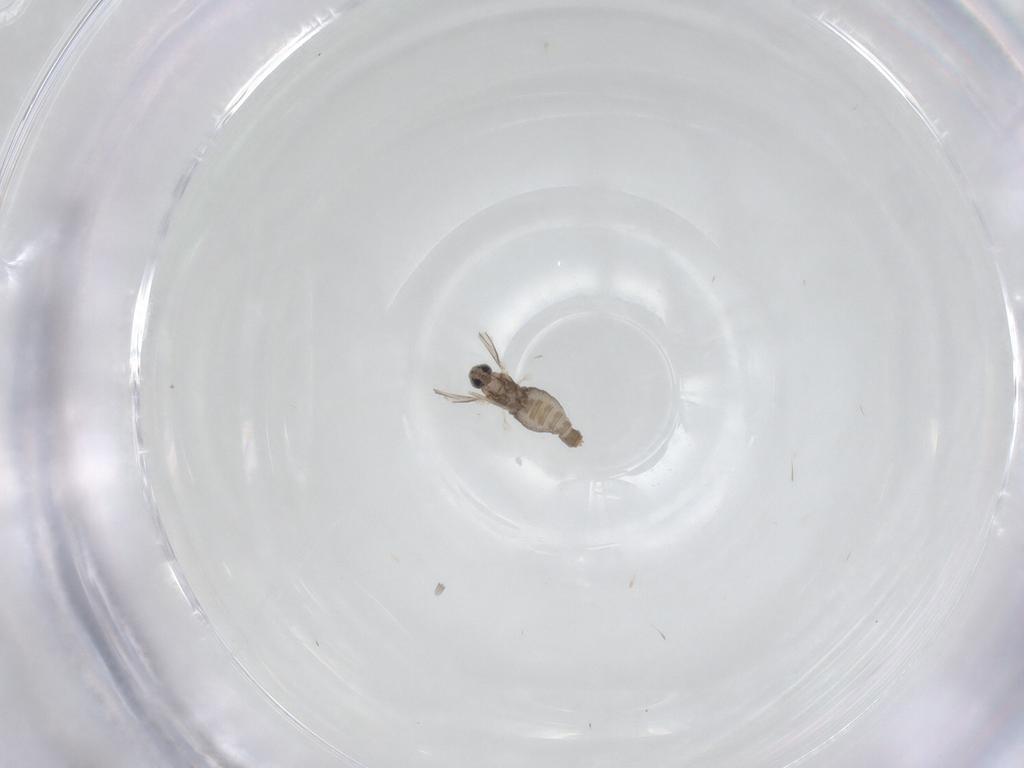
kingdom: Animalia
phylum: Arthropoda
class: Insecta
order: Diptera
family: Cecidomyiidae
